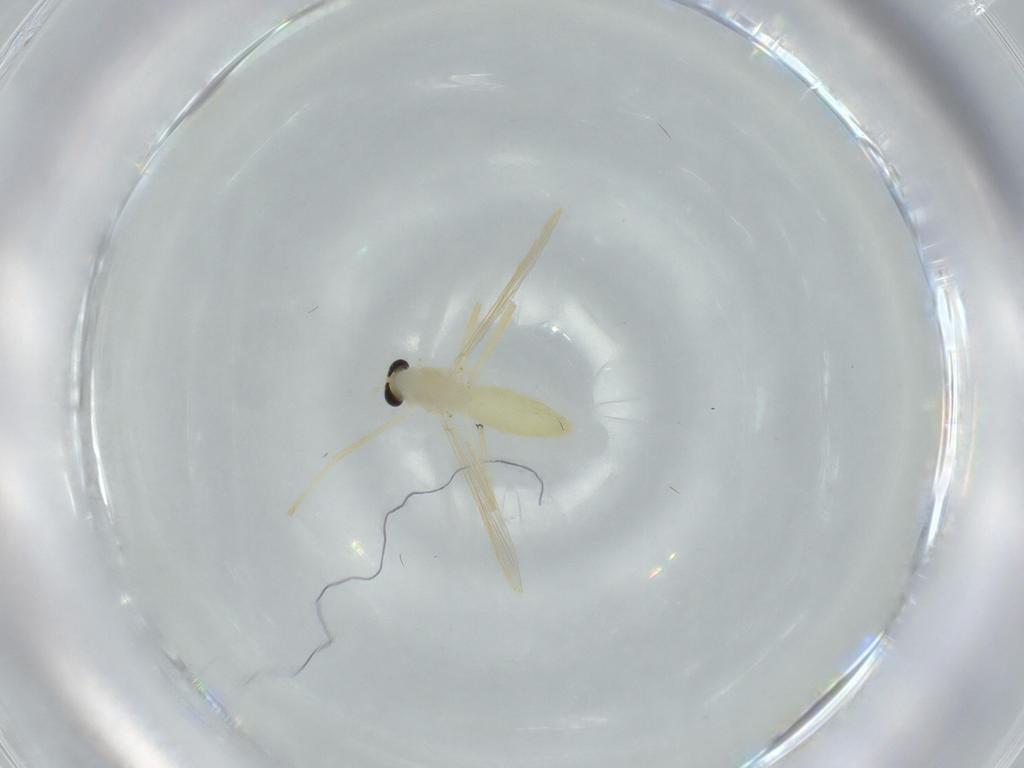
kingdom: Animalia
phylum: Arthropoda
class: Insecta
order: Diptera
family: Chironomidae
